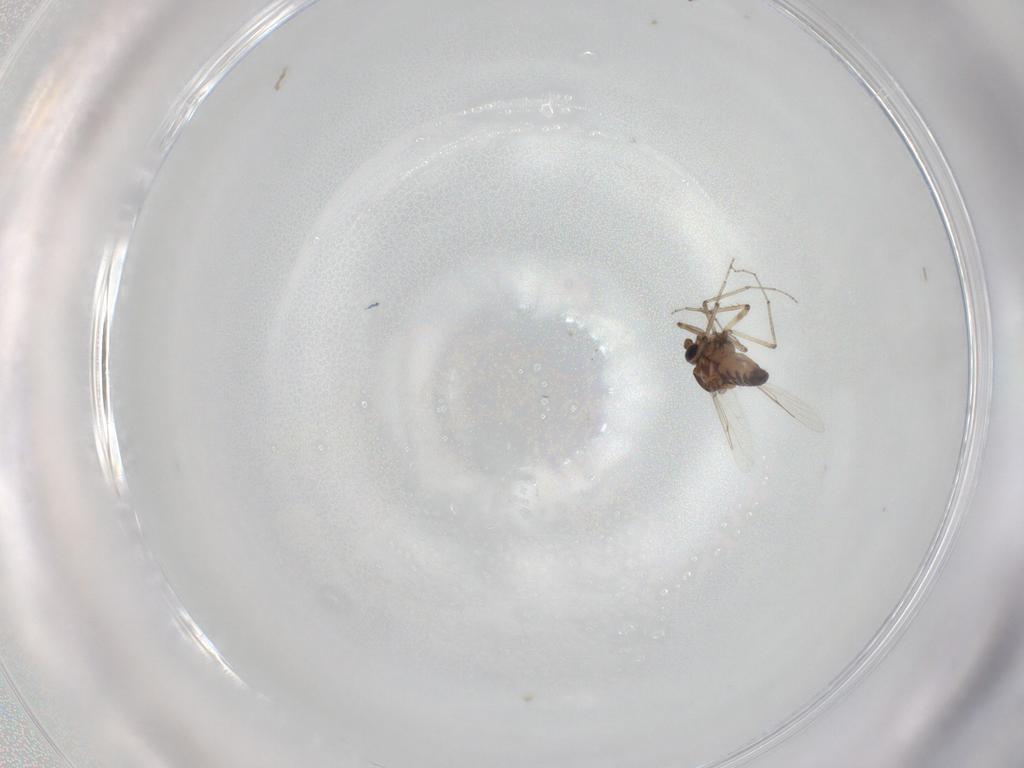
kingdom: Animalia
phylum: Arthropoda
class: Insecta
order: Diptera
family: Ceratopogonidae
